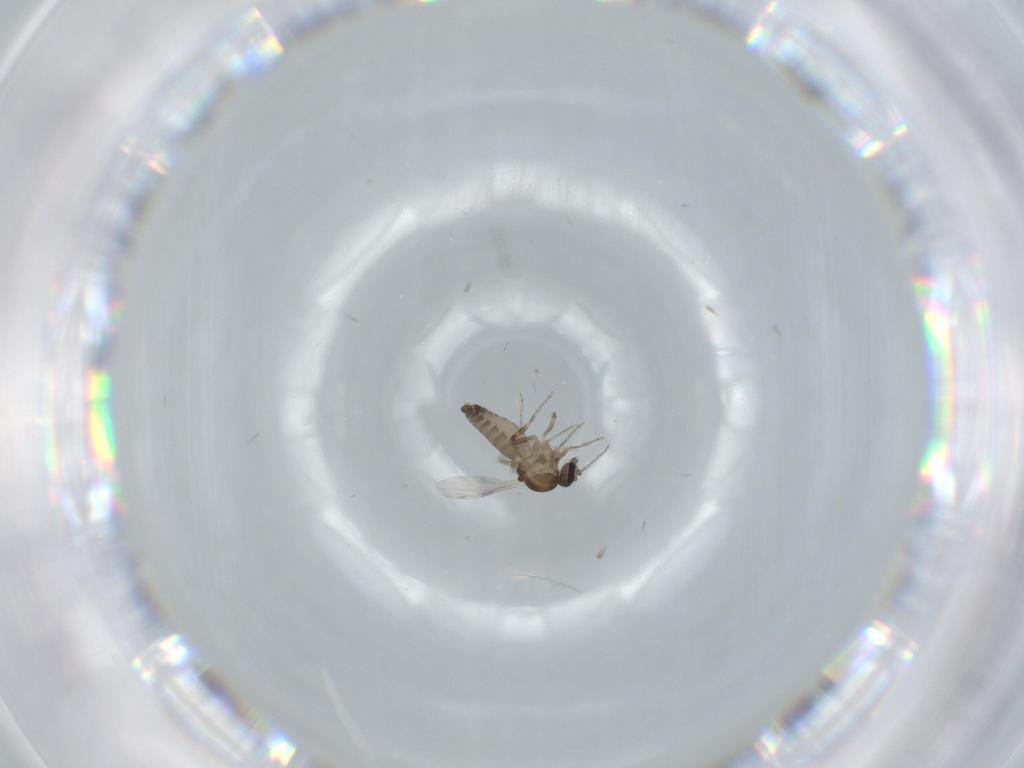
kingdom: Animalia
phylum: Arthropoda
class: Insecta
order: Diptera
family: Ceratopogonidae
